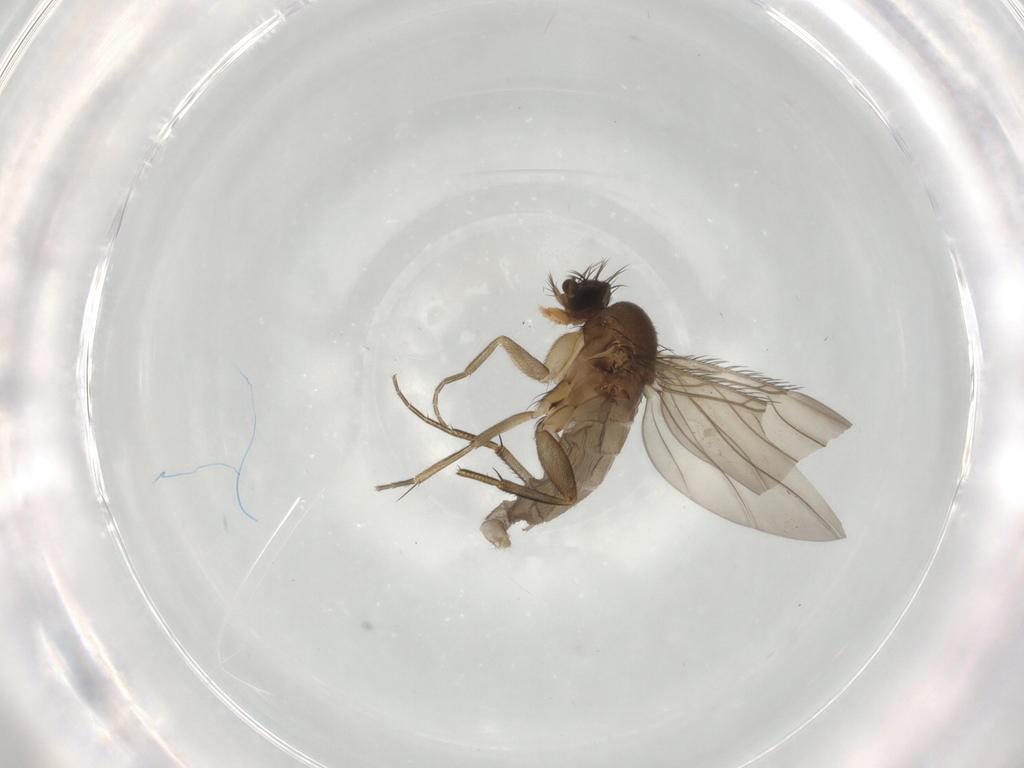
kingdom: Animalia
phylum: Arthropoda
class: Insecta
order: Diptera
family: Phoridae
